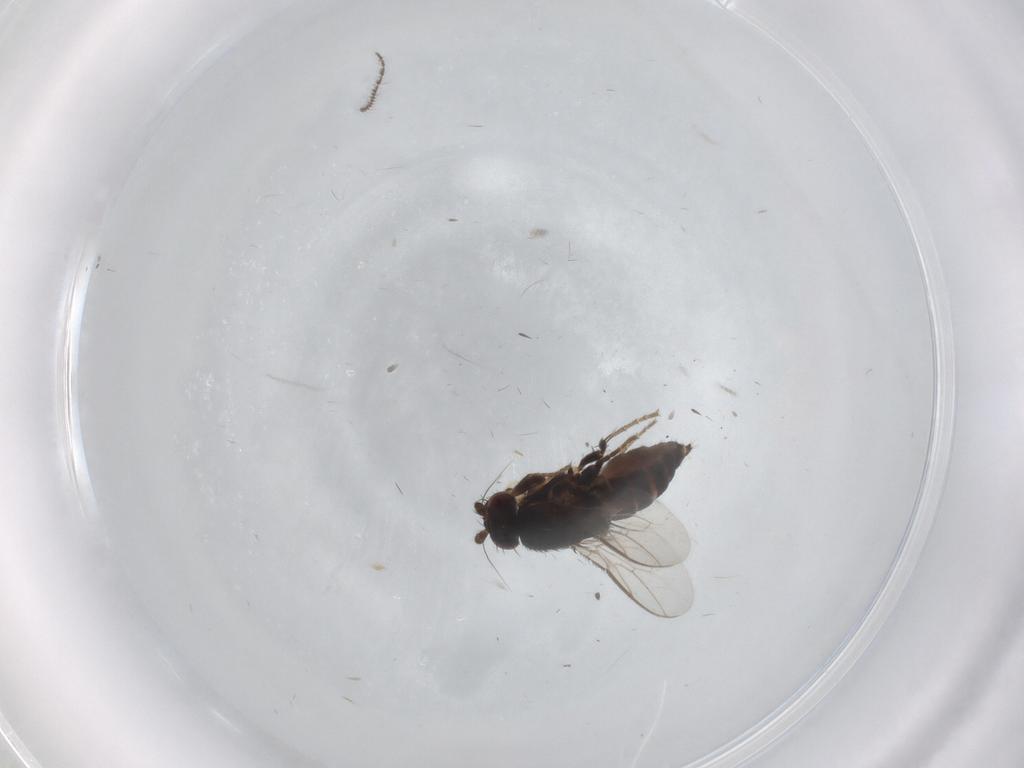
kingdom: Animalia
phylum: Arthropoda
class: Insecta
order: Diptera
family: Sphaeroceridae
